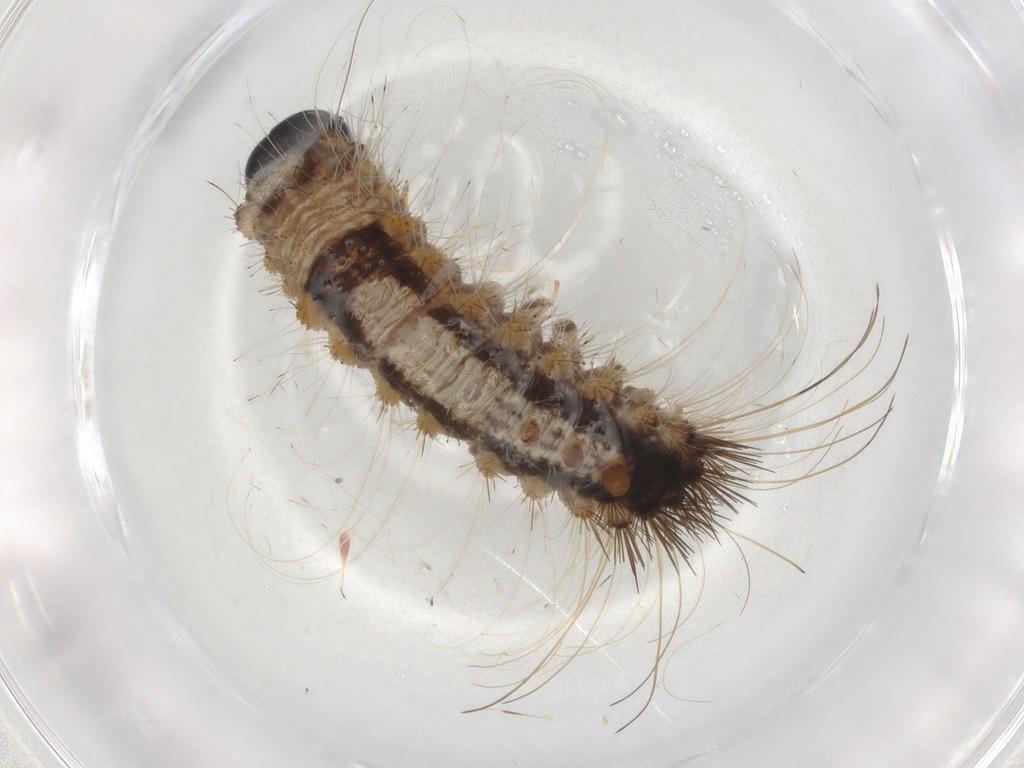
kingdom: Animalia
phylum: Arthropoda
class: Insecta
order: Lepidoptera
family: Erebidae
